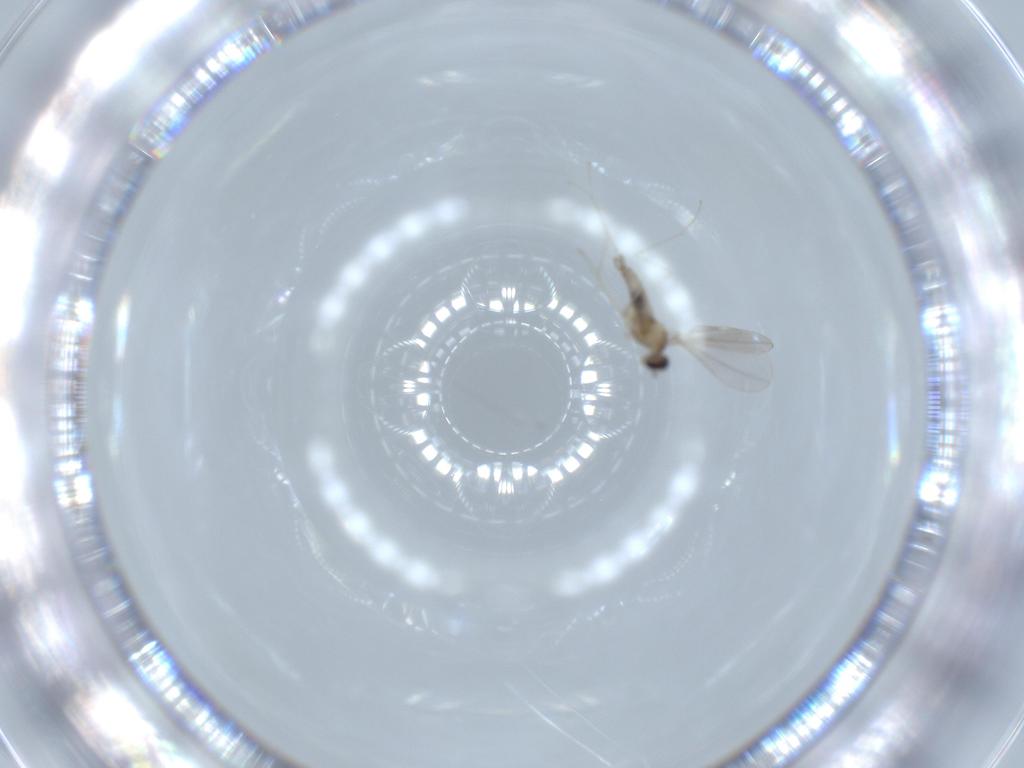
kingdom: Animalia
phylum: Arthropoda
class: Insecta
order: Diptera
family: Cecidomyiidae
